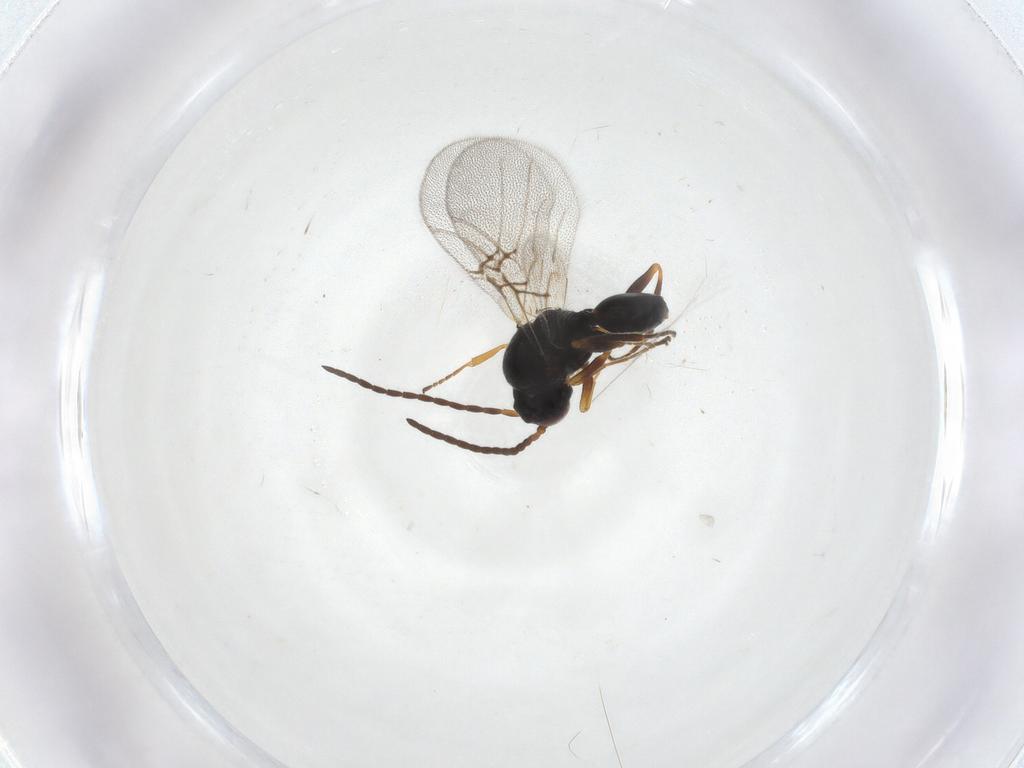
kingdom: Animalia
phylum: Arthropoda
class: Insecta
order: Hymenoptera
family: Cynipidae
